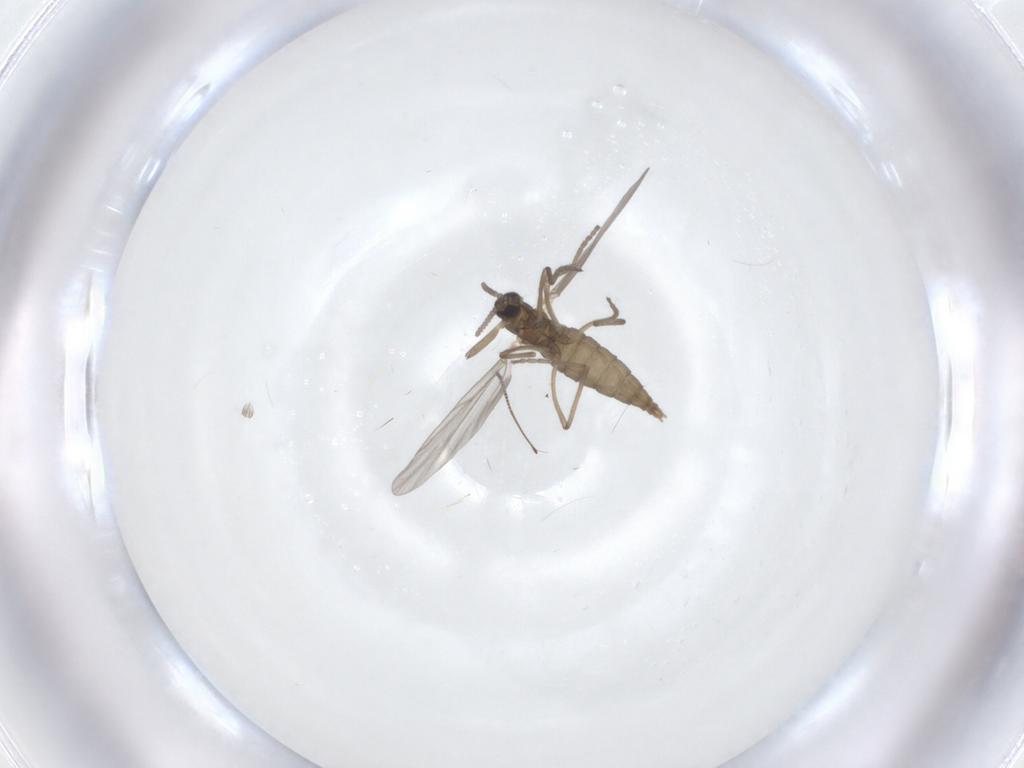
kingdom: Animalia
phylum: Arthropoda
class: Insecta
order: Diptera
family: Cecidomyiidae
